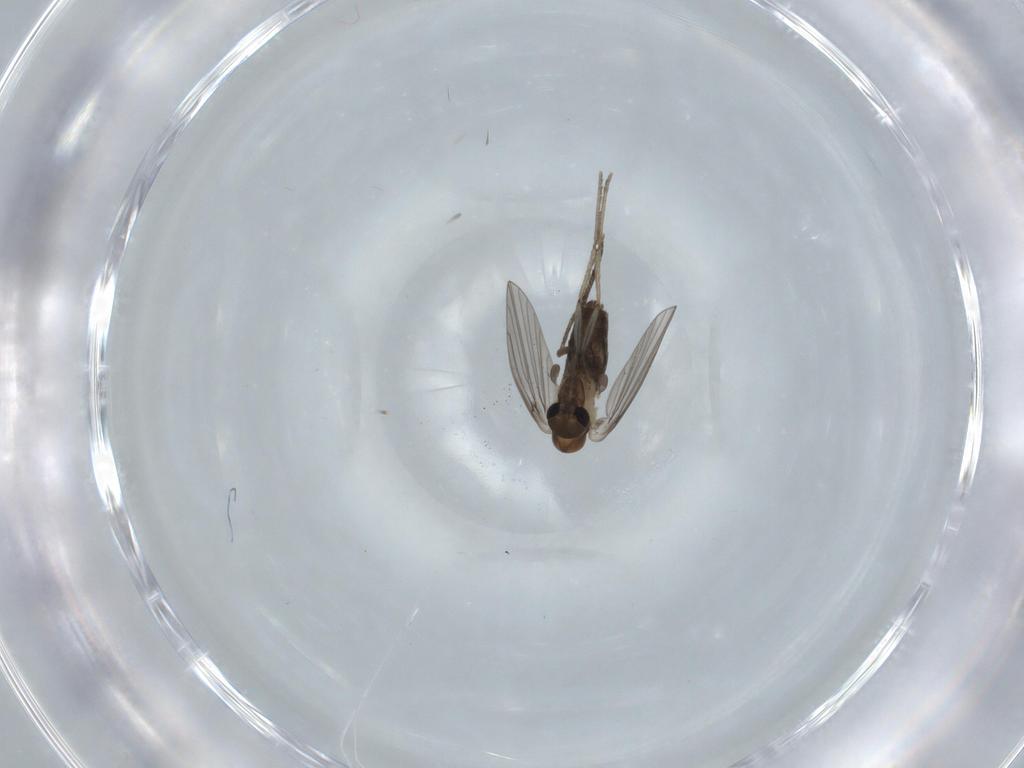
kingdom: Animalia
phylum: Arthropoda
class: Insecta
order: Diptera
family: Psychodidae
